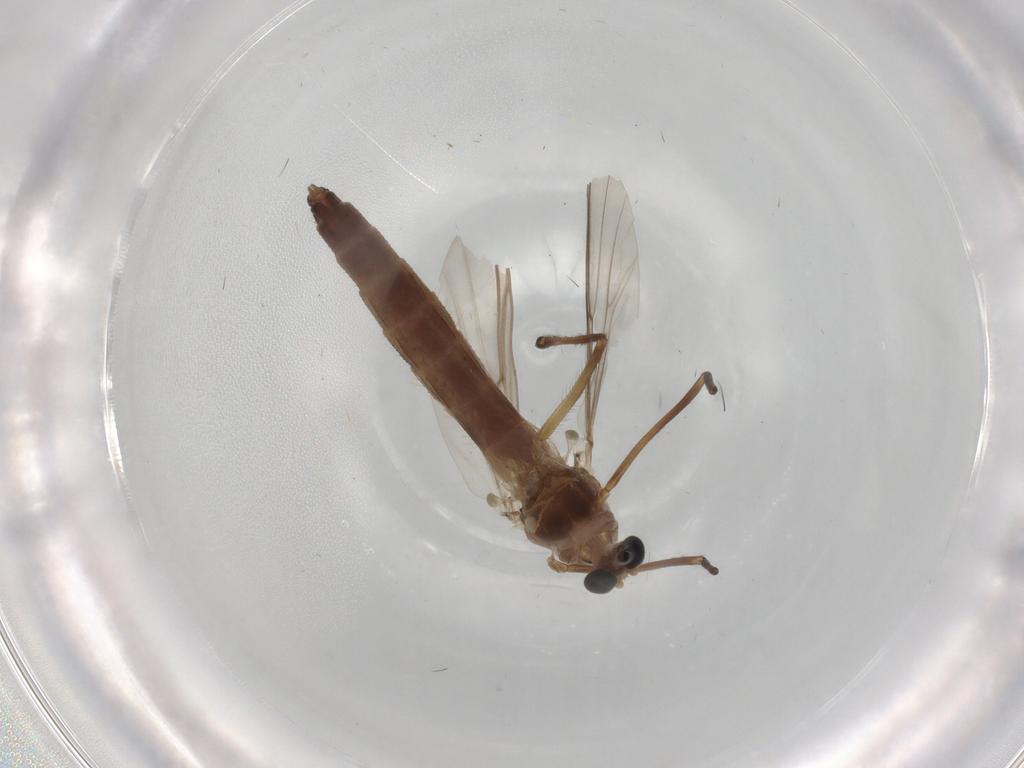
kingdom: Animalia
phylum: Arthropoda
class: Insecta
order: Diptera
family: Chironomidae
